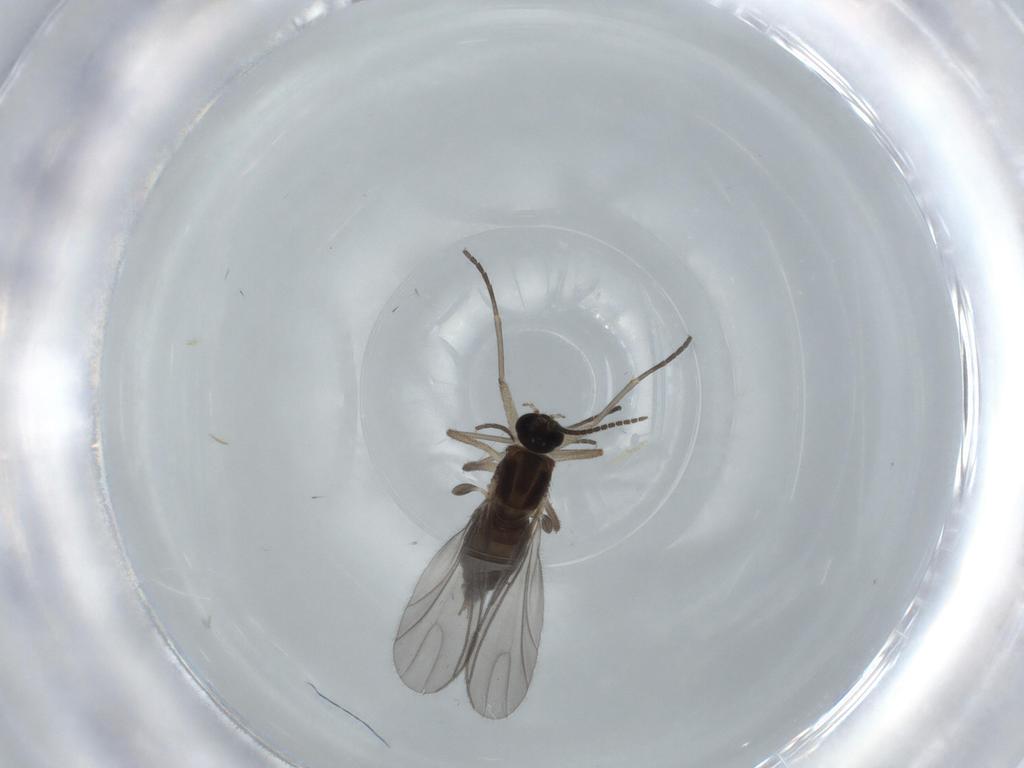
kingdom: Animalia
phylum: Arthropoda
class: Insecta
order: Diptera
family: Sciaridae
